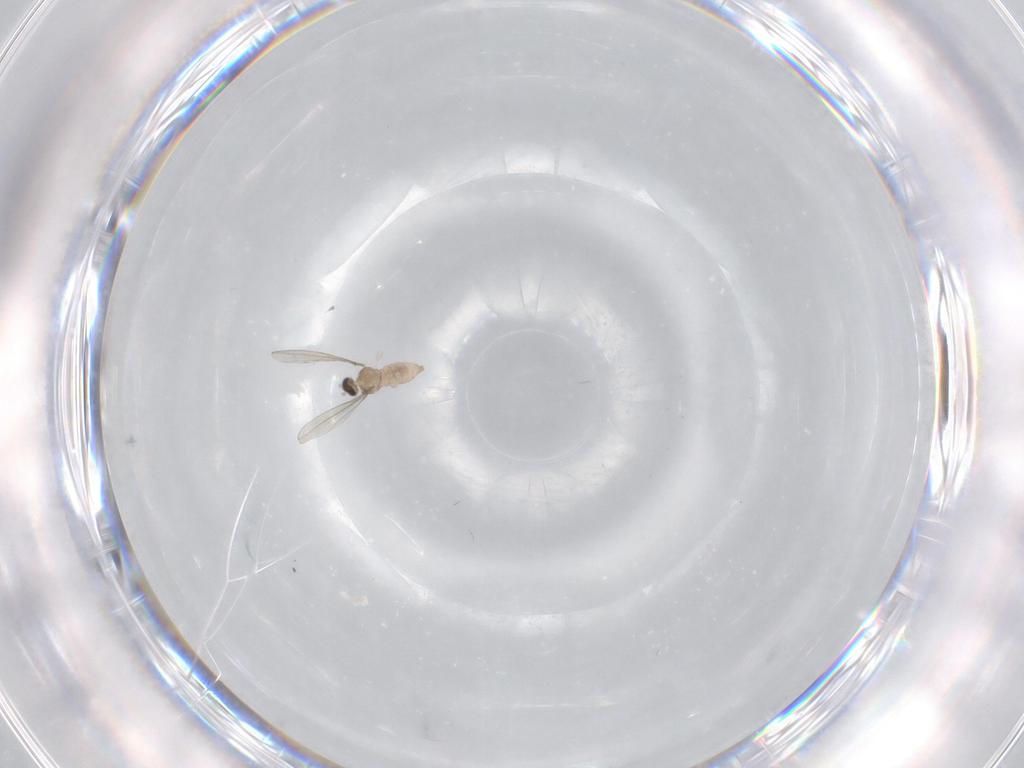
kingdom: Animalia
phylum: Arthropoda
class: Insecta
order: Diptera
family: Cecidomyiidae
